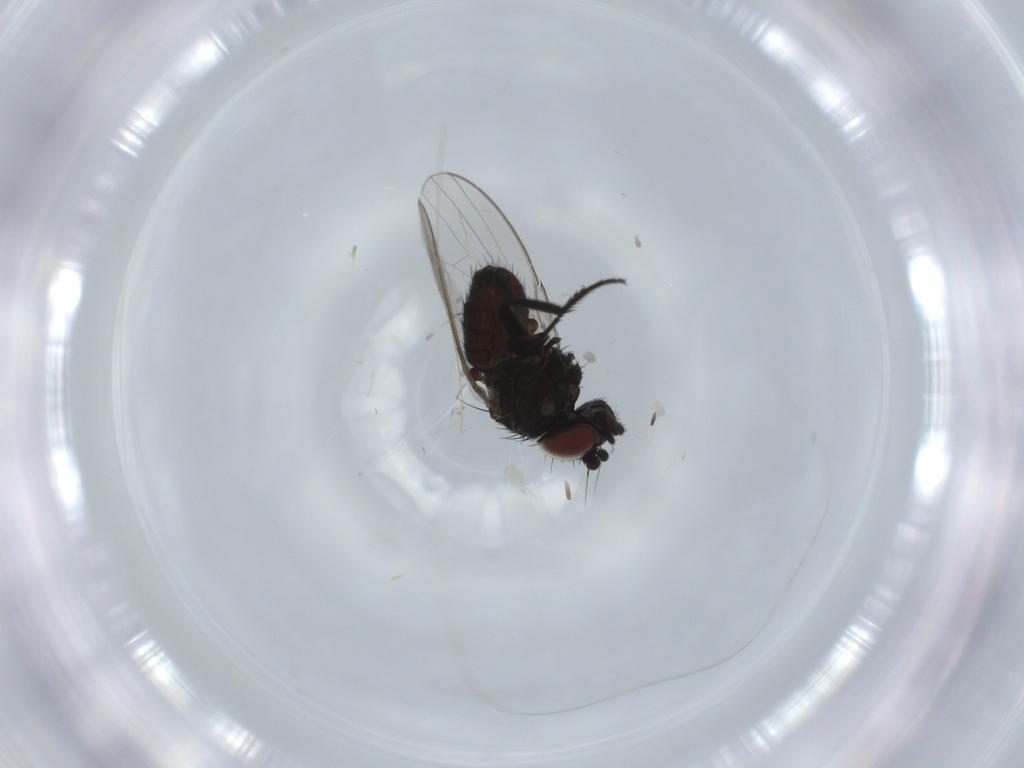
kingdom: Animalia
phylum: Arthropoda
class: Insecta
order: Diptera
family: Milichiidae
